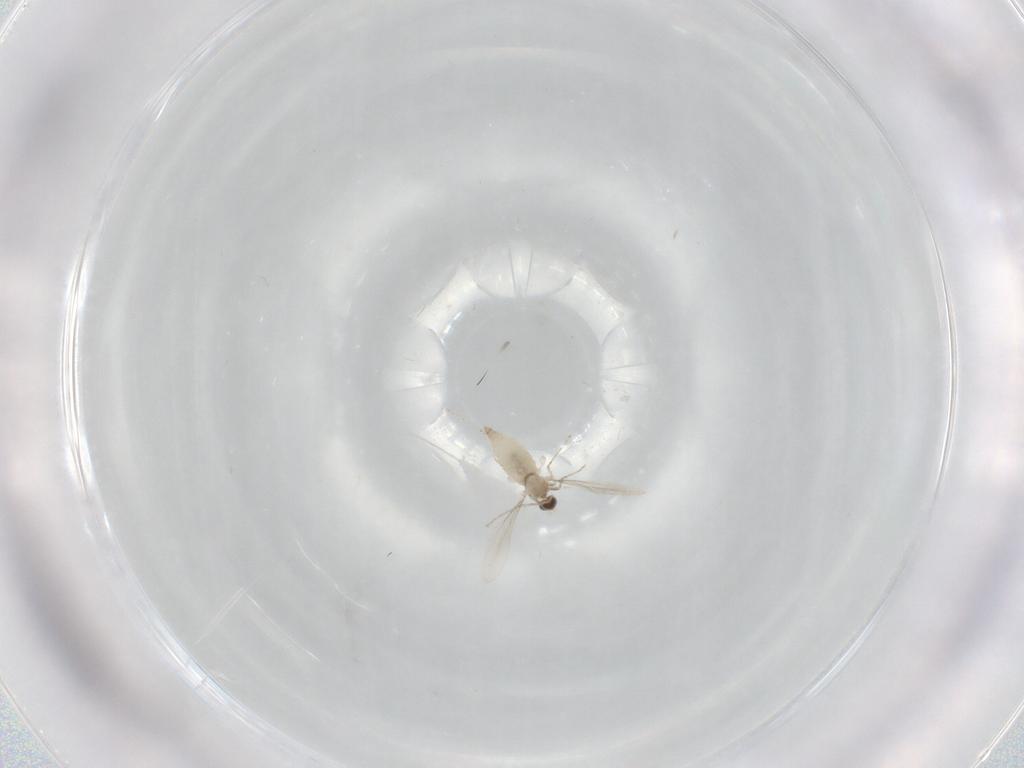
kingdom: Animalia
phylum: Arthropoda
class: Insecta
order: Diptera
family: Cecidomyiidae
